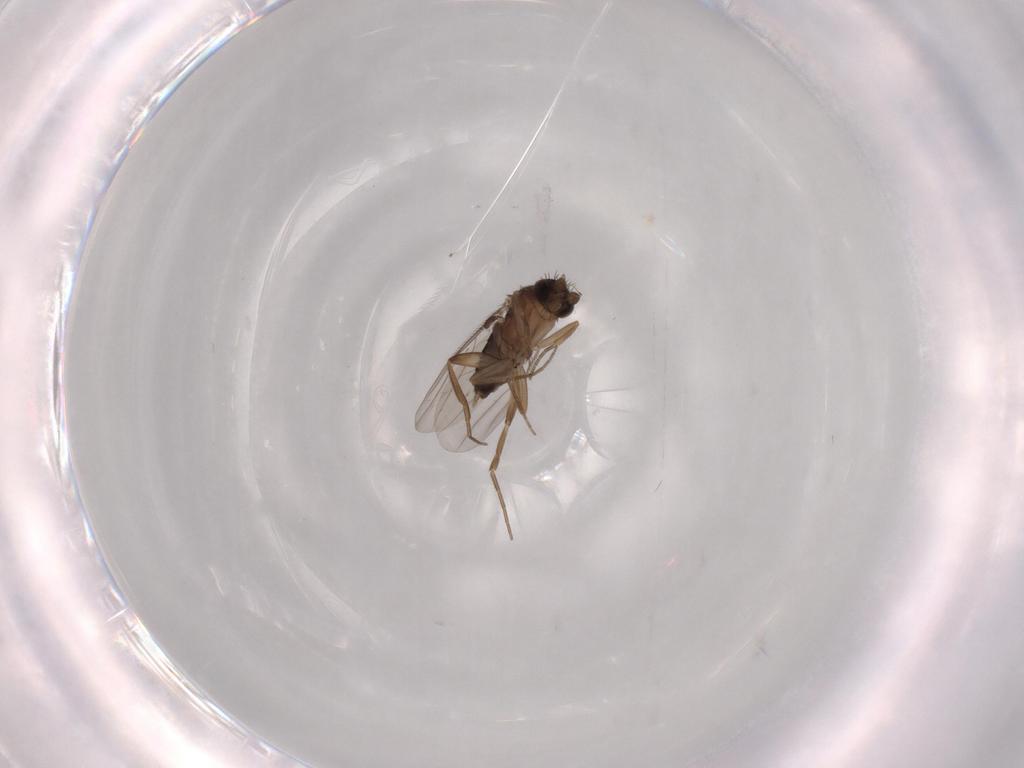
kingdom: Animalia
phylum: Arthropoda
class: Insecta
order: Diptera
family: Phoridae
